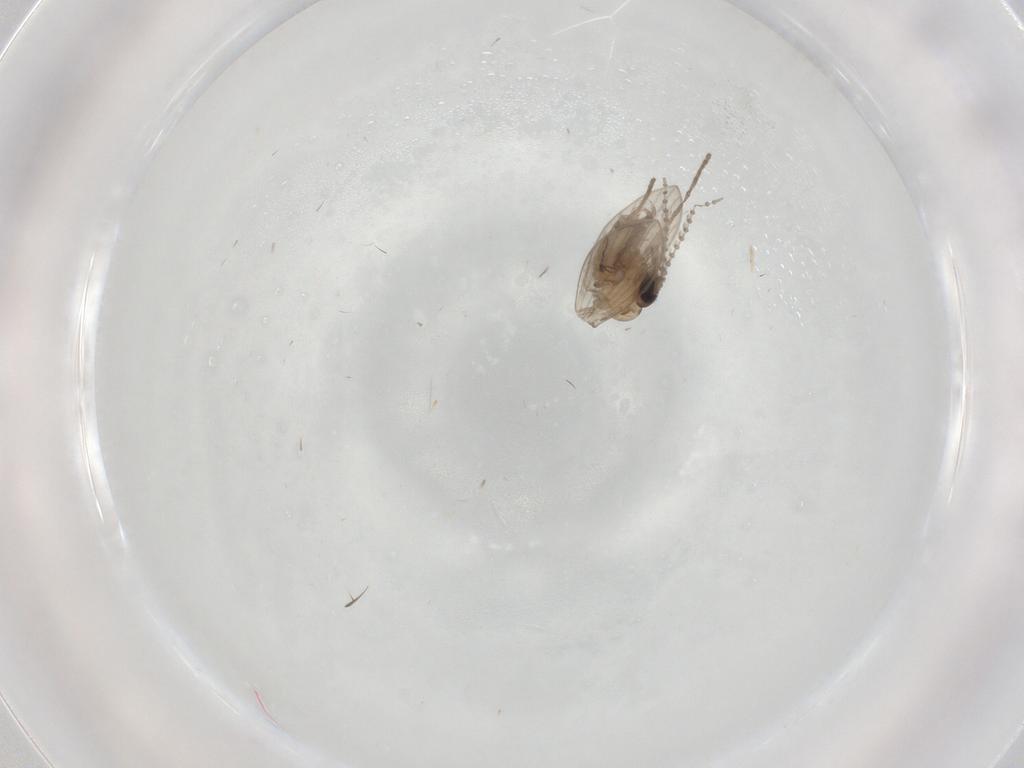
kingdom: Animalia
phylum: Arthropoda
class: Insecta
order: Diptera
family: Psychodidae
